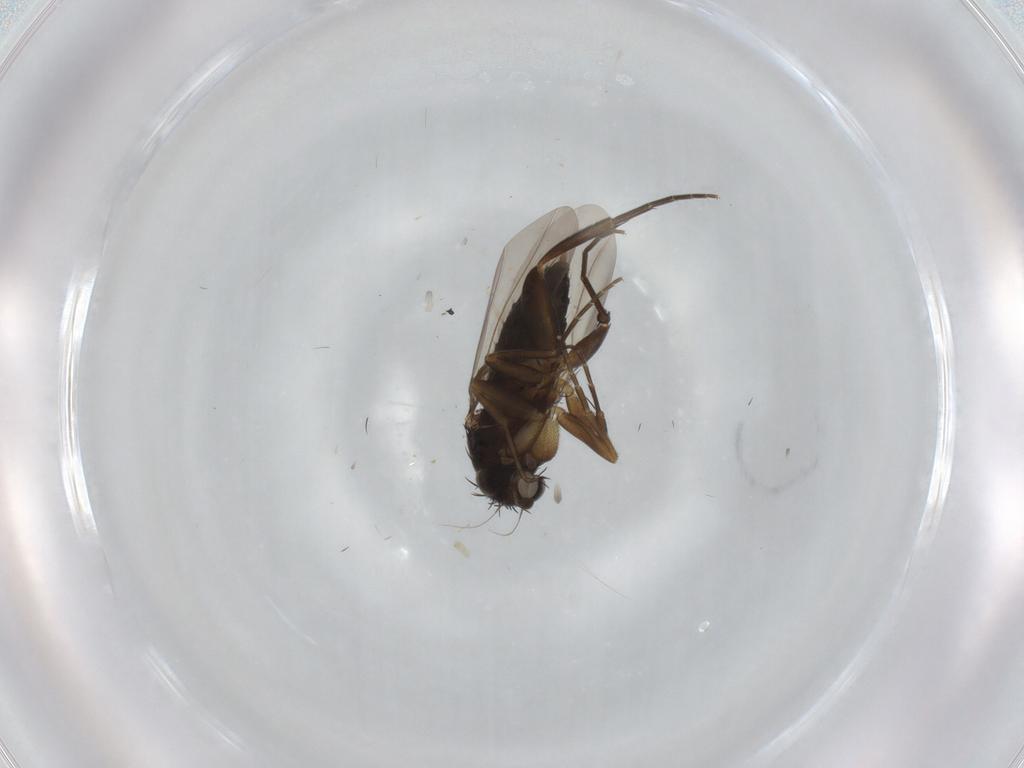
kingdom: Animalia
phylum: Arthropoda
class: Insecta
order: Diptera
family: Phoridae
